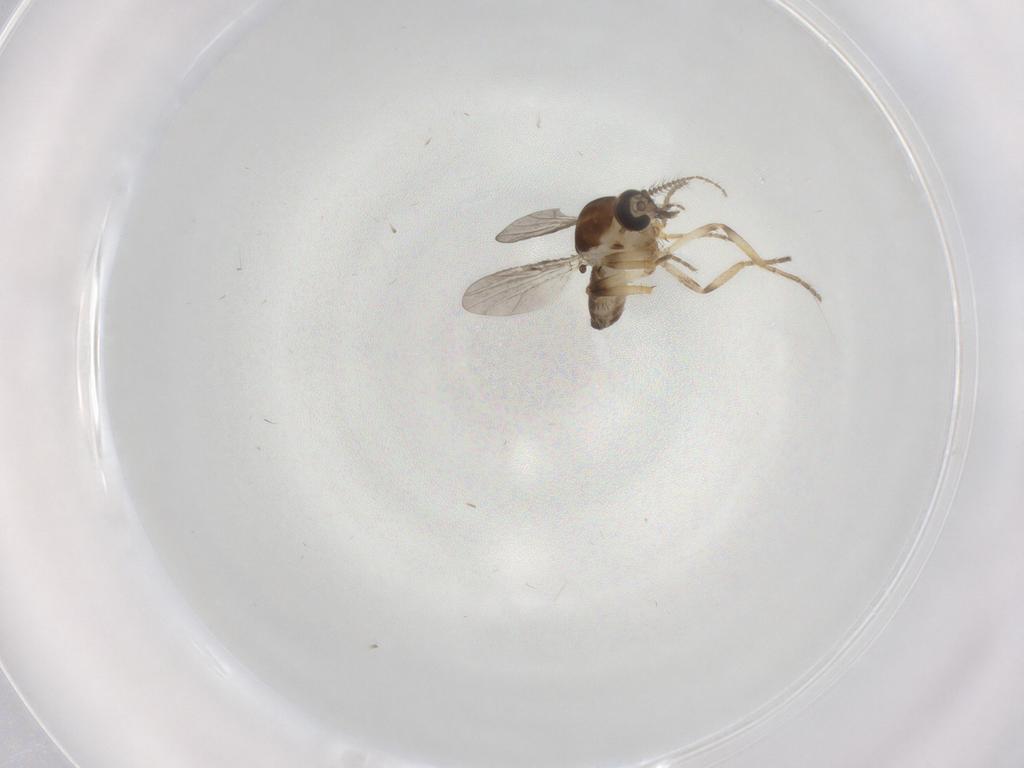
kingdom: Animalia
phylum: Arthropoda
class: Insecta
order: Diptera
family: Ceratopogonidae
